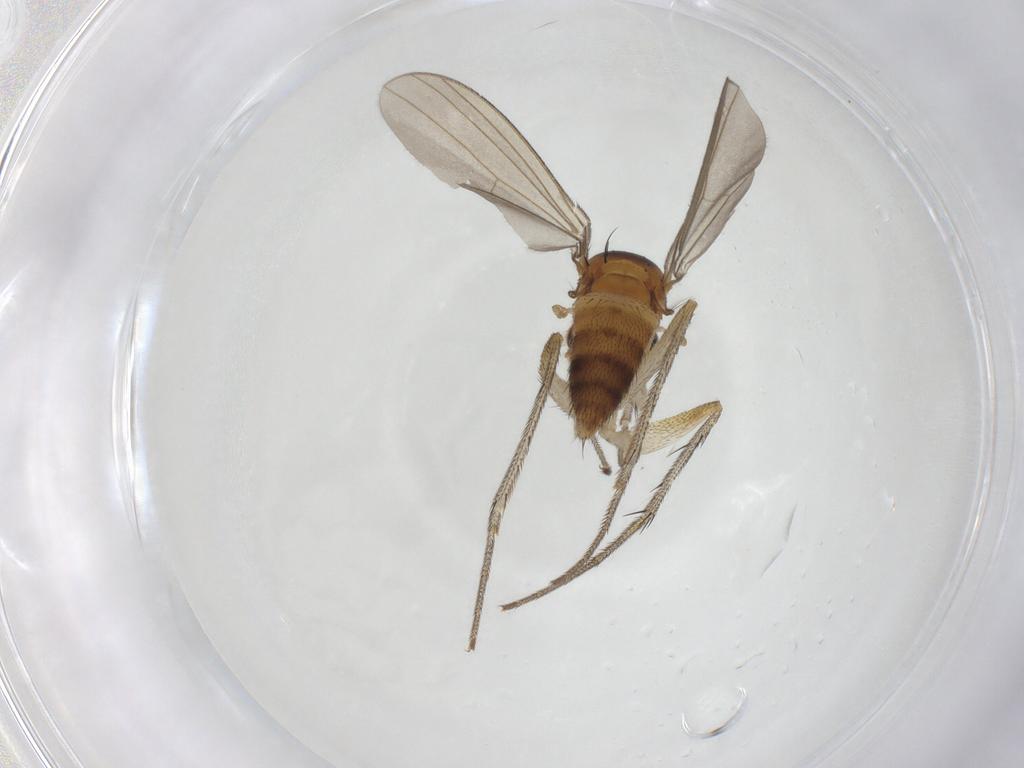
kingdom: Animalia
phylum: Arthropoda
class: Insecta
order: Diptera
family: Dolichopodidae
